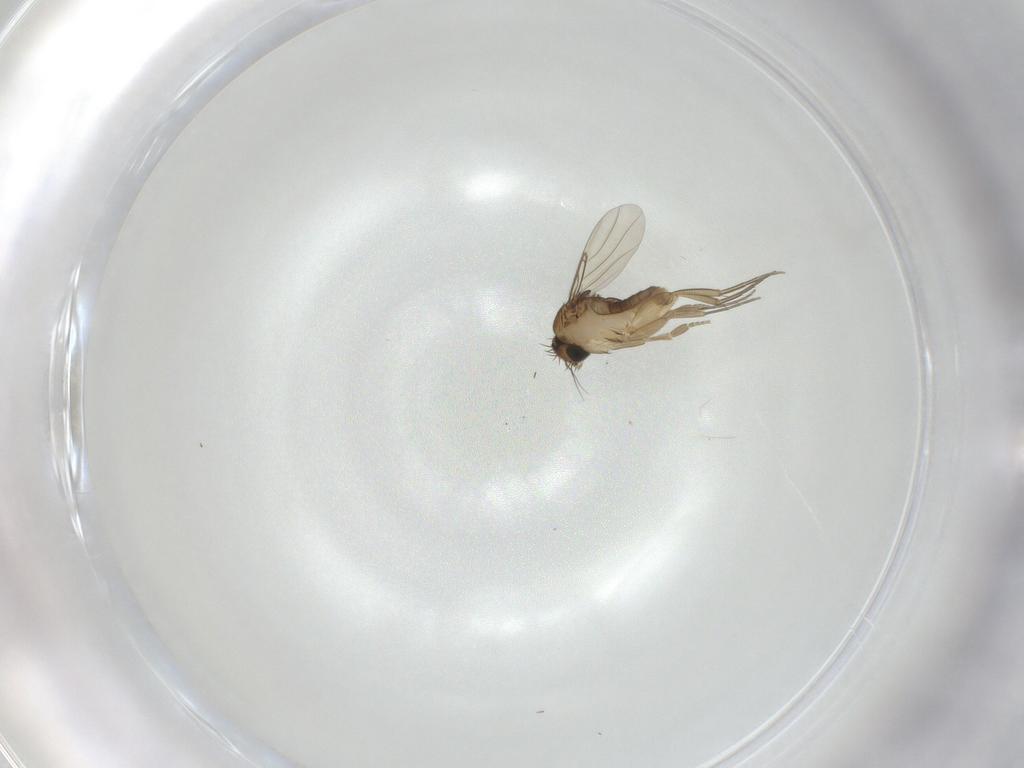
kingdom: Animalia
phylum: Arthropoda
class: Insecta
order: Diptera
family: Phoridae
